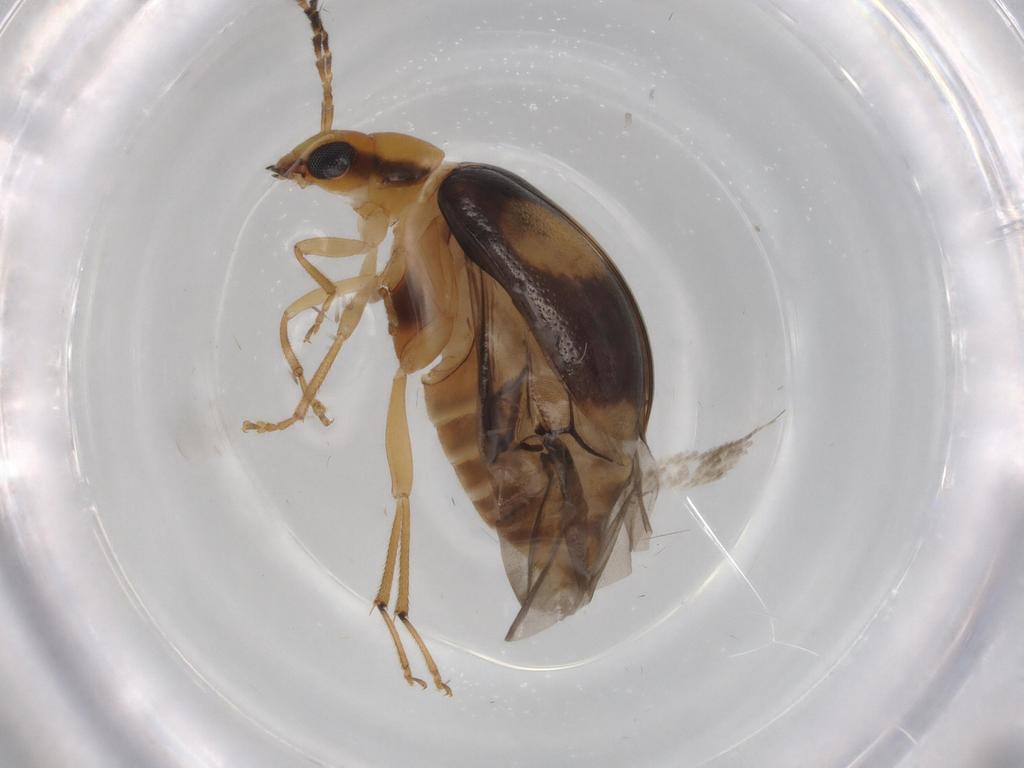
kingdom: Animalia
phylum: Arthropoda
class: Insecta
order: Coleoptera
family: Chrysomelidae
